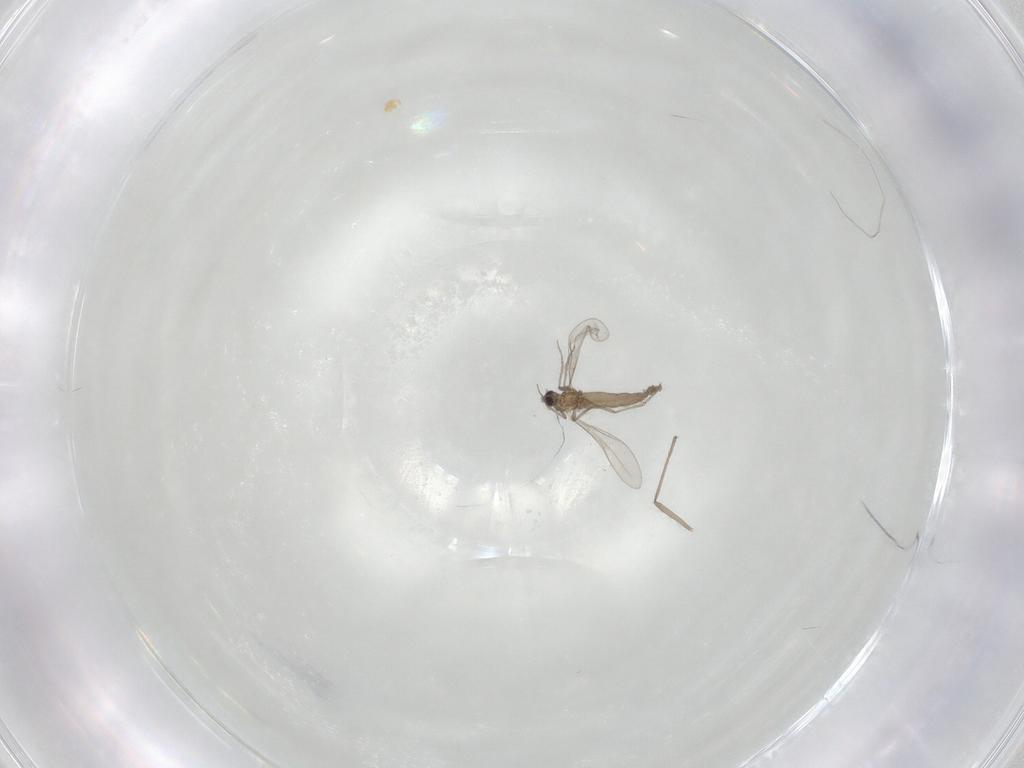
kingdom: Animalia
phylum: Arthropoda
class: Insecta
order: Diptera
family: Cecidomyiidae
